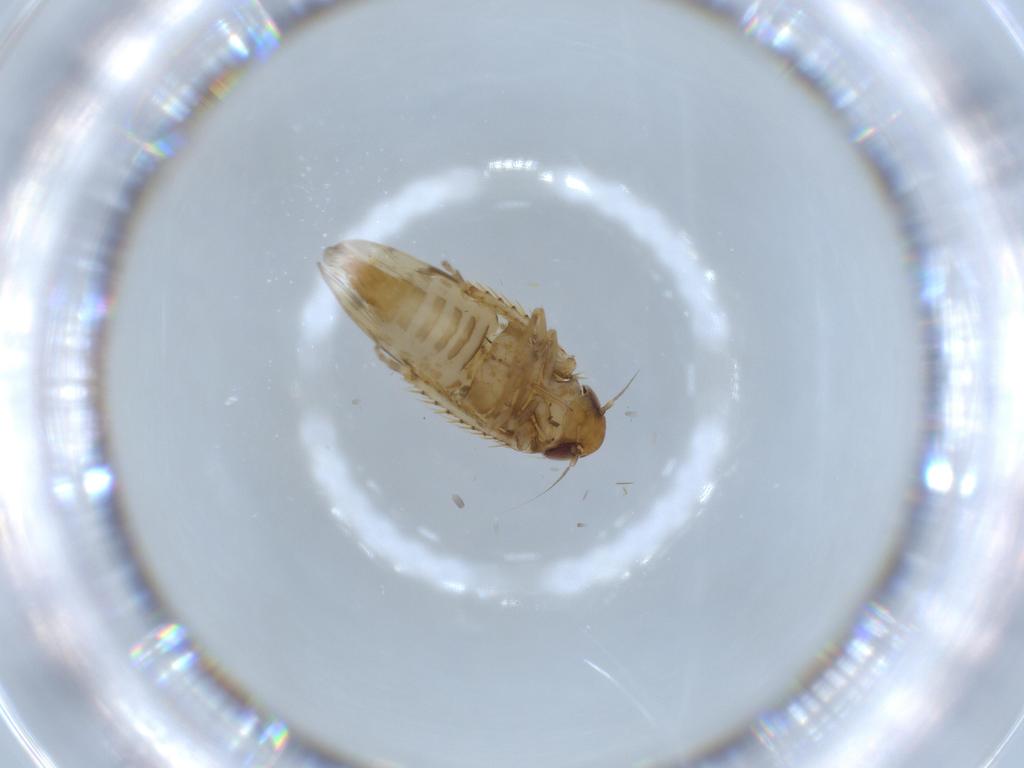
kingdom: Animalia
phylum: Arthropoda
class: Insecta
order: Hemiptera
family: Cicadellidae
